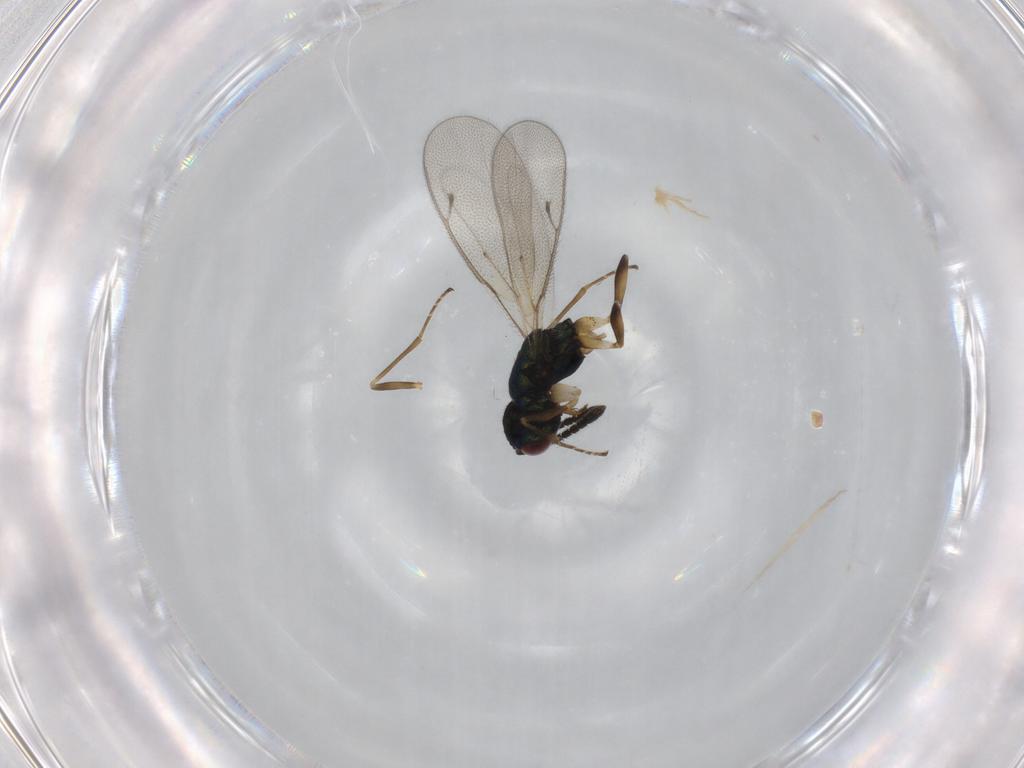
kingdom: Animalia
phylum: Arthropoda
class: Insecta
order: Hymenoptera
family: Pteromalidae
